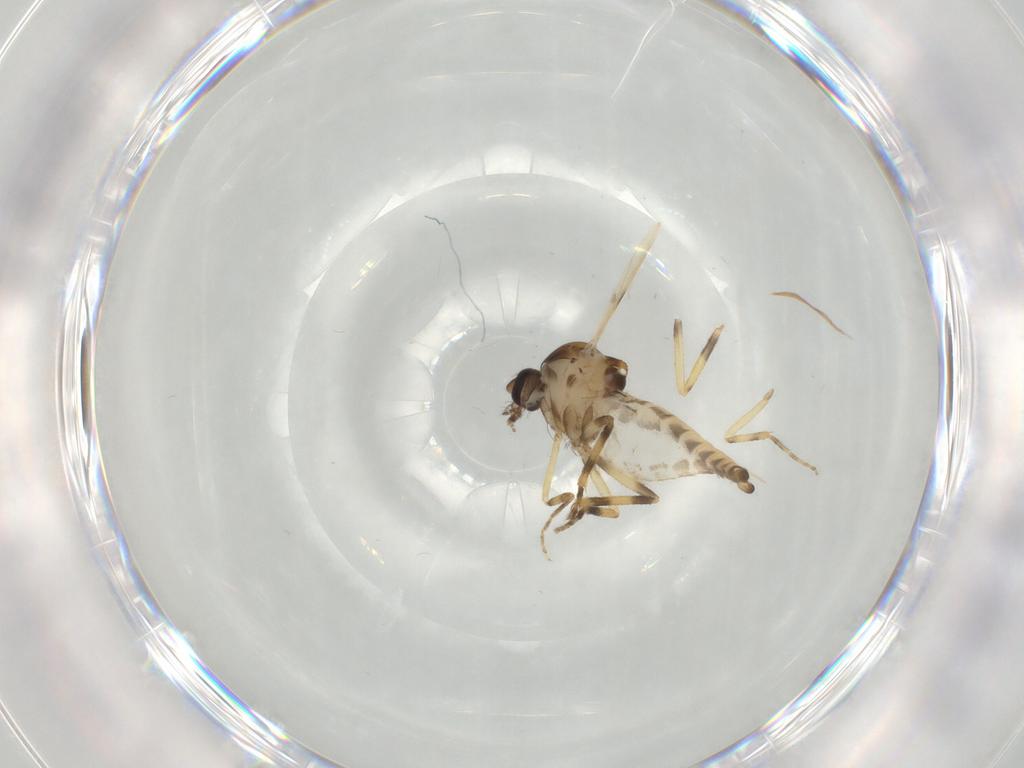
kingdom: Animalia
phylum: Arthropoda
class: Insecta
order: Diptera
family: Ceratopogonidae
